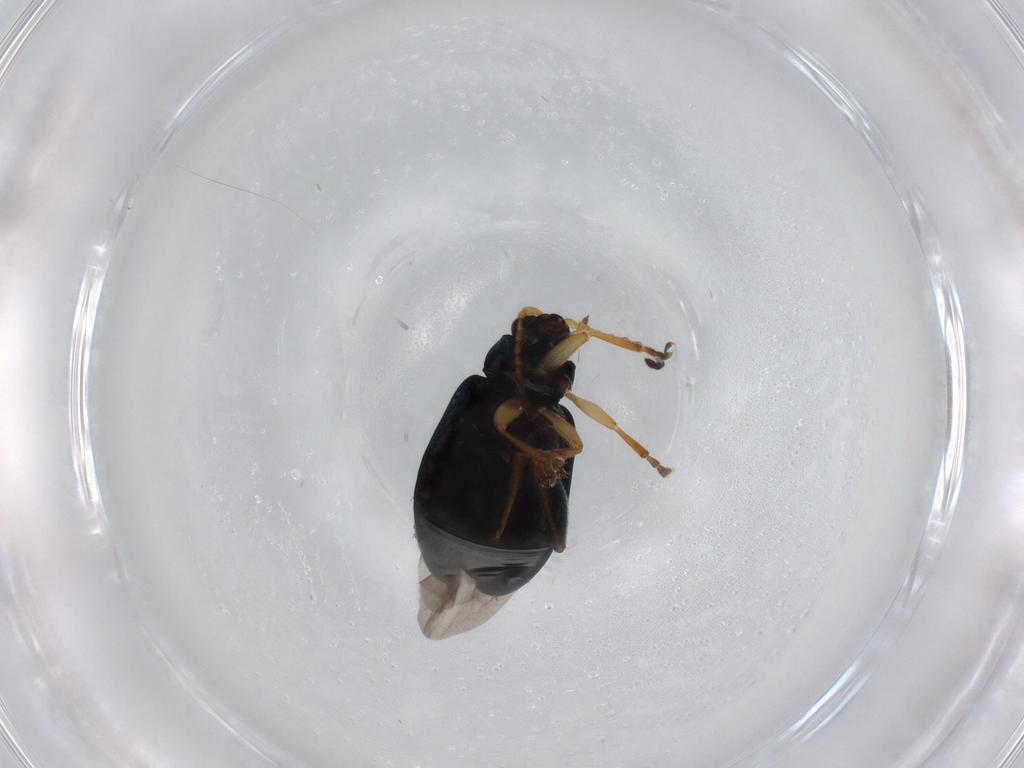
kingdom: Animalia
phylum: Arthropoda
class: Insecta
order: Coleoptera
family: Chrysomelidae
